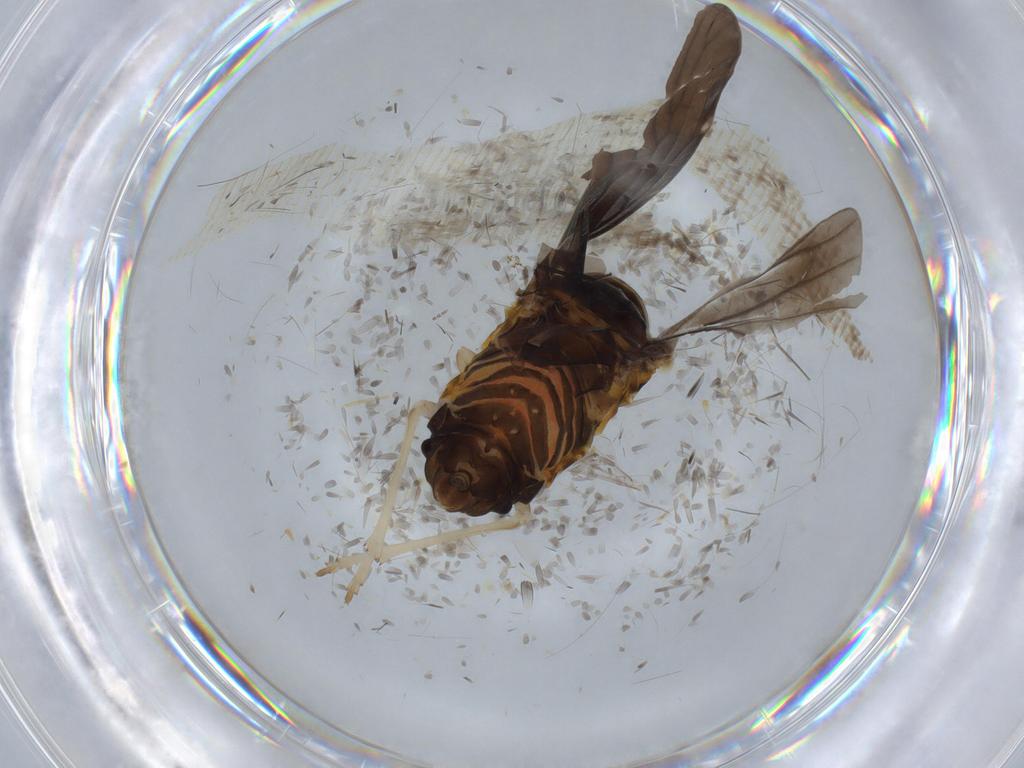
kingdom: Animalia
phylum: Arthropoda
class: Insecta
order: Hemiptera
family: Derbidae
